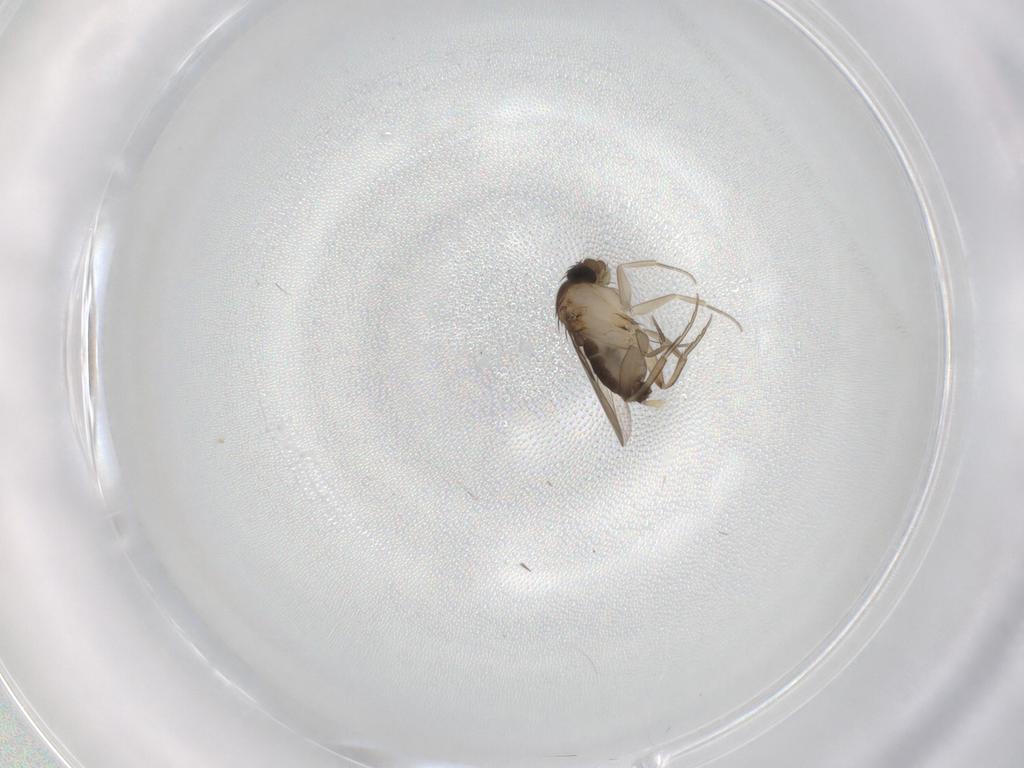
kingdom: Animalia
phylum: Arthropoda
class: Insecta
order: Diptera
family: Phoridae
